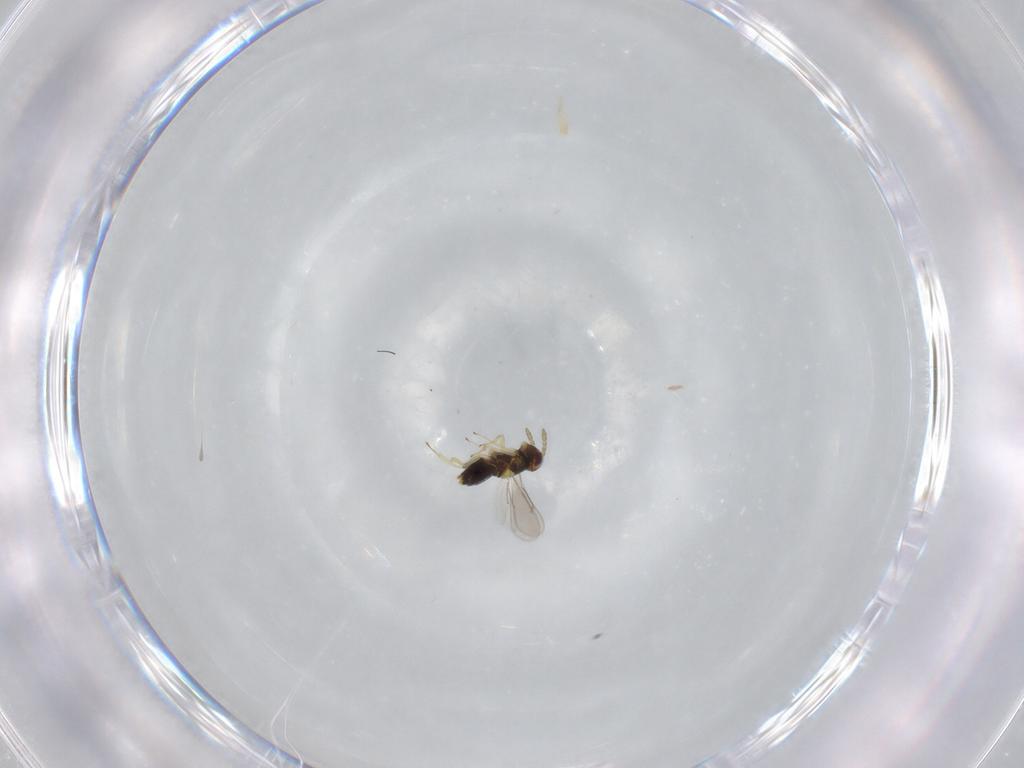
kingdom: Animalia
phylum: Arthropoda
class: Insecta
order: Hymenoptera
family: Aphelinidae
